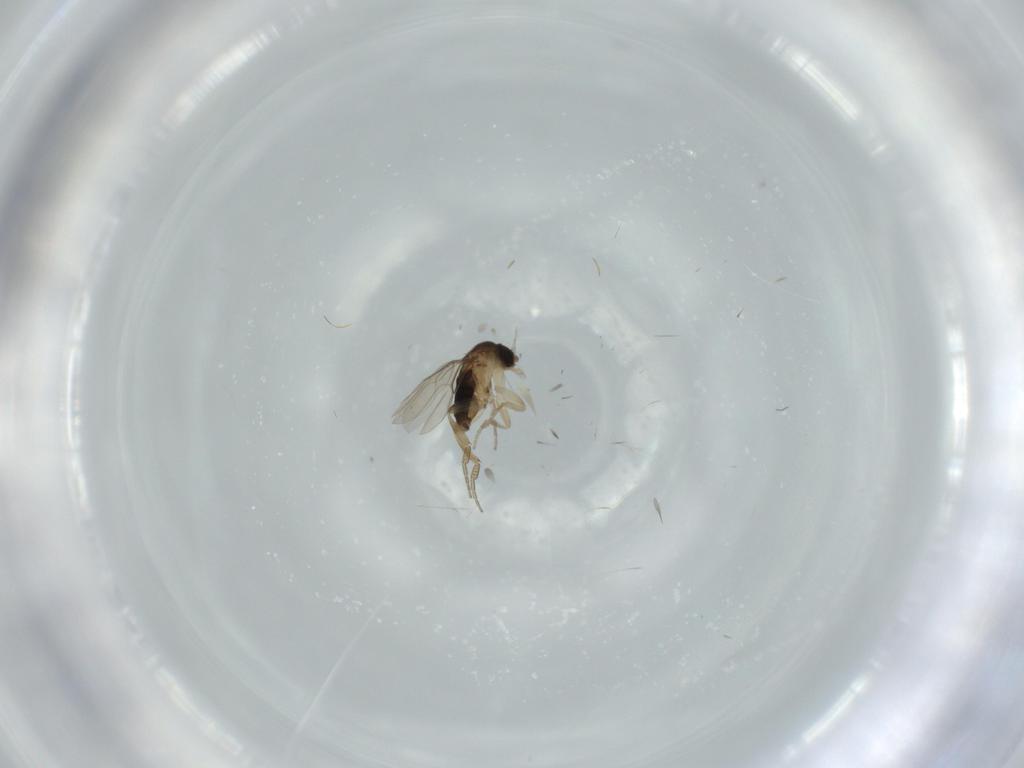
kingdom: Animalia
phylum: Arthropoda
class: Insecta
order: Diptera
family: Phoridae
